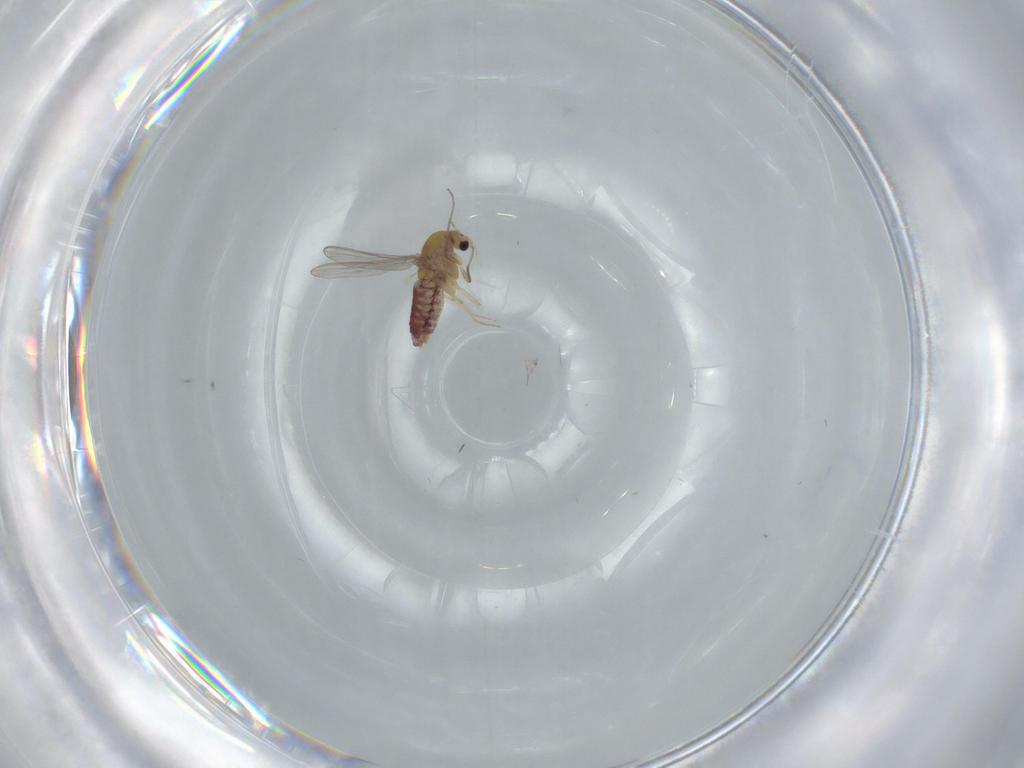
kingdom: Animalia
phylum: Arthropoda
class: Insecta
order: Diptera
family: Chironomidae
